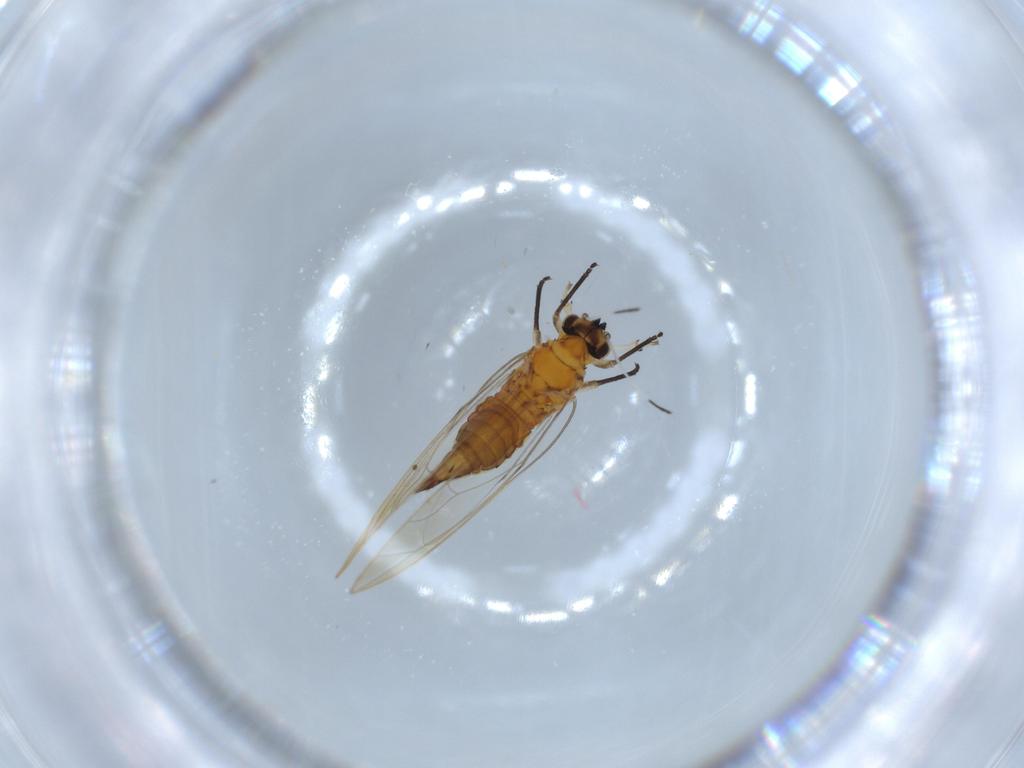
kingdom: Animalia
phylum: Arthropoda
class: Insecta
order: Hemiptera
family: Triozidae
